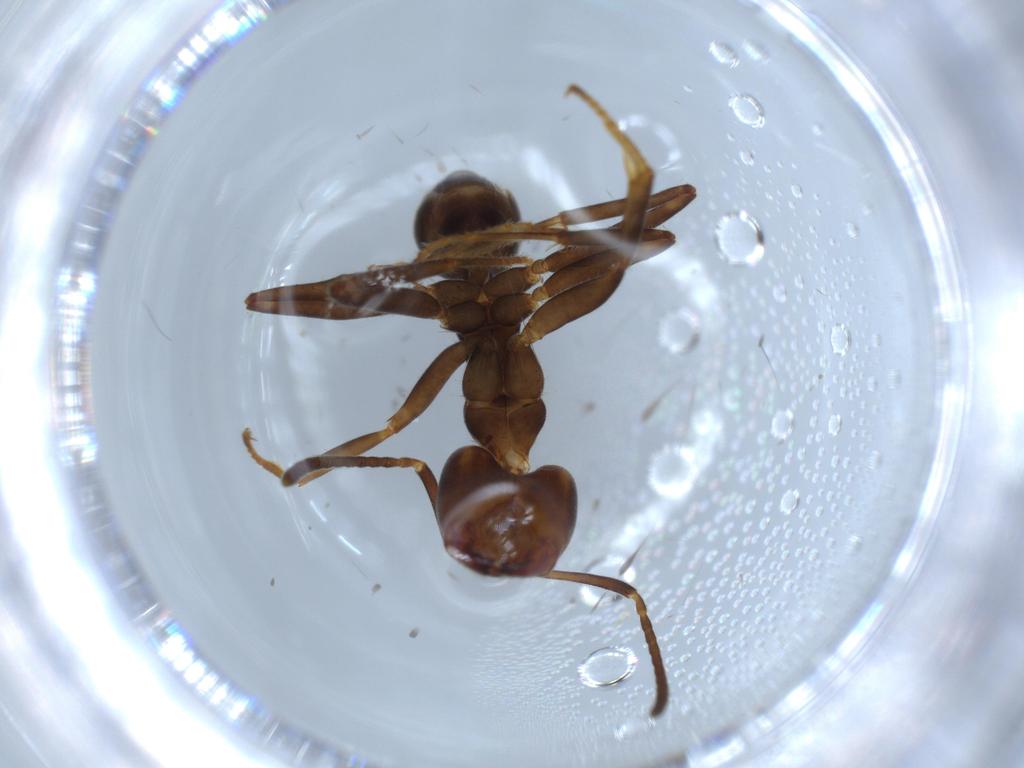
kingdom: Animalia
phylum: Arthropoda
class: Insecta
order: Hymenoptera
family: Formicidae
